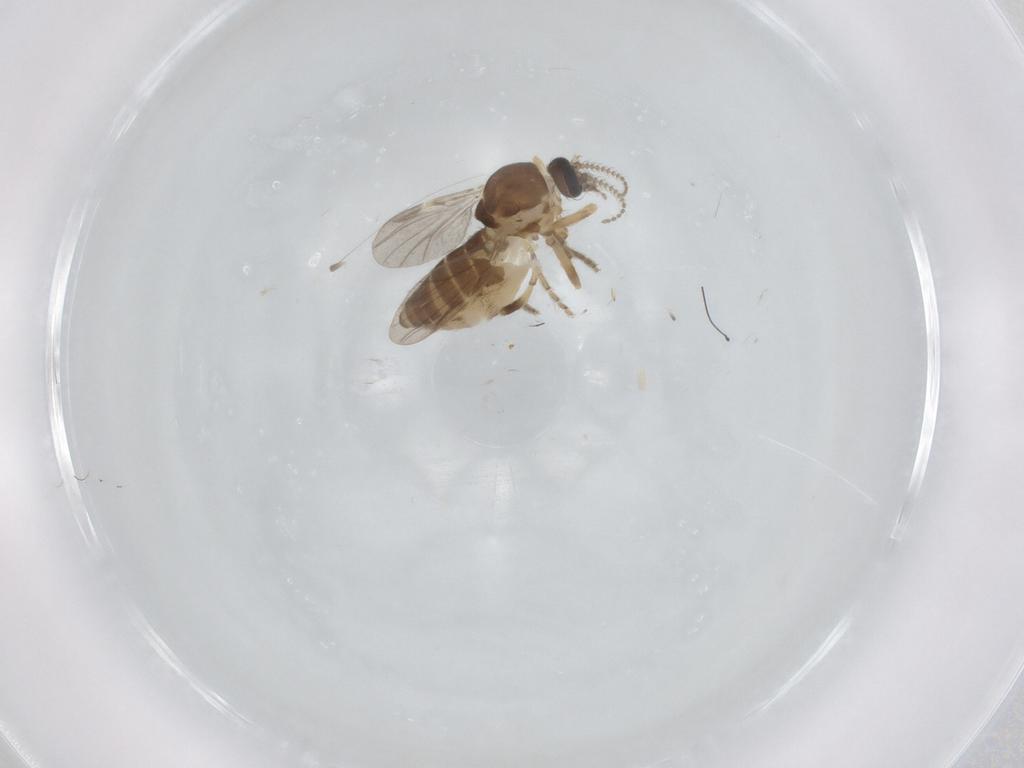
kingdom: Animalia
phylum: Arthropoda
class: Insecta
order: Diptera
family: Ceratopogonidae
